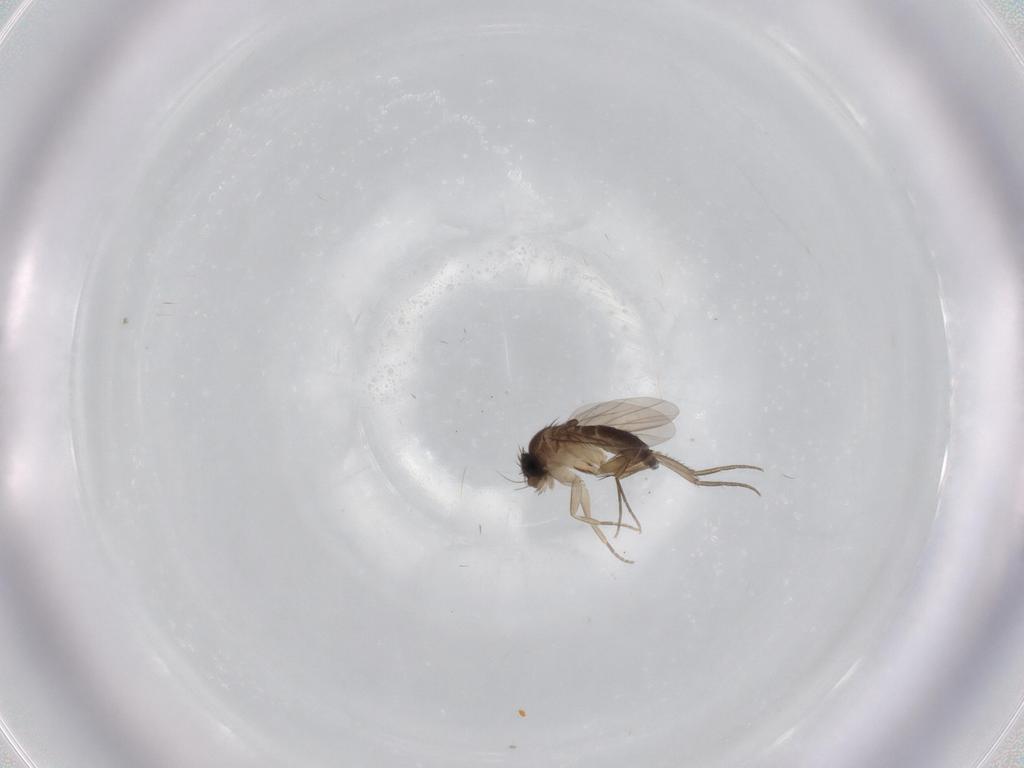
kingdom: Animalia
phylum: Arthropoda
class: Insecta
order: Diptera
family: Phoridae
